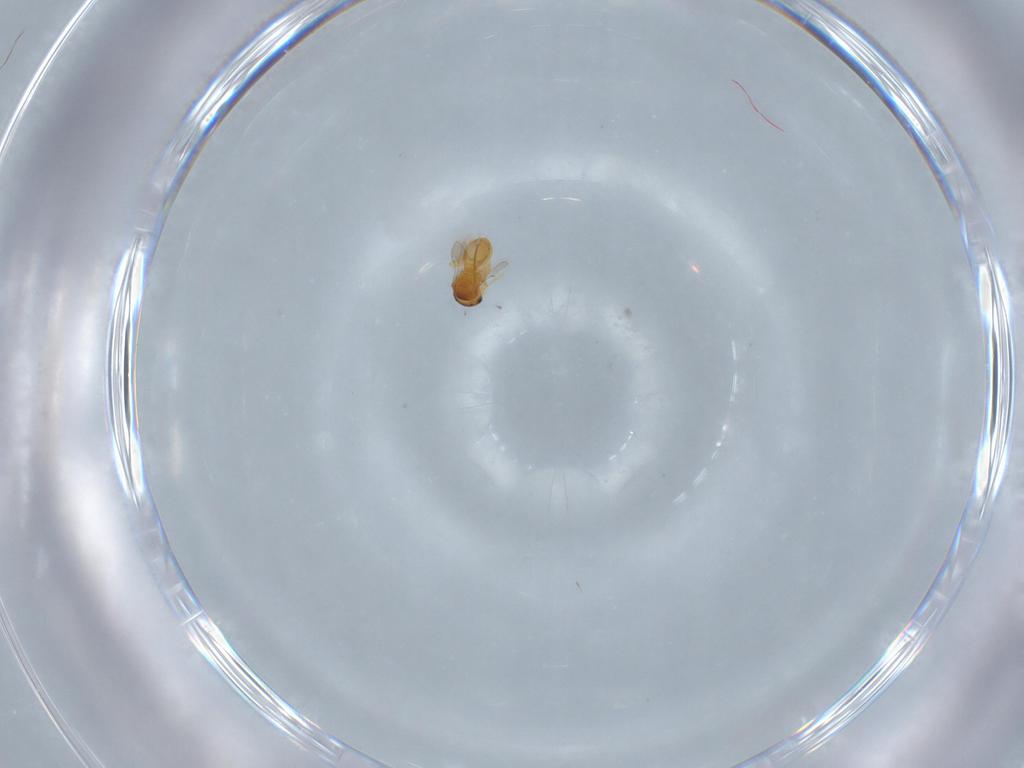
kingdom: Animalia
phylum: Arthropoda
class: Insecta
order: Hymenoptera
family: Scelionidae
